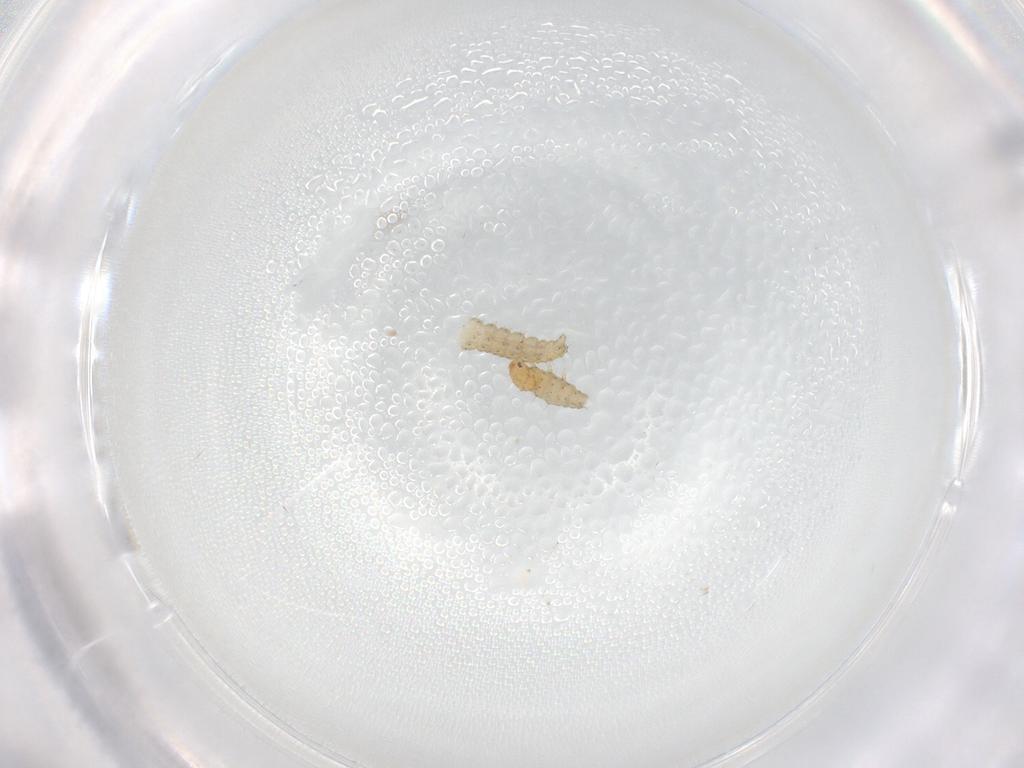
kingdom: Animalia
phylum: Arthropoda
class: Insecta
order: Lepidoptera
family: Gelechiidae
